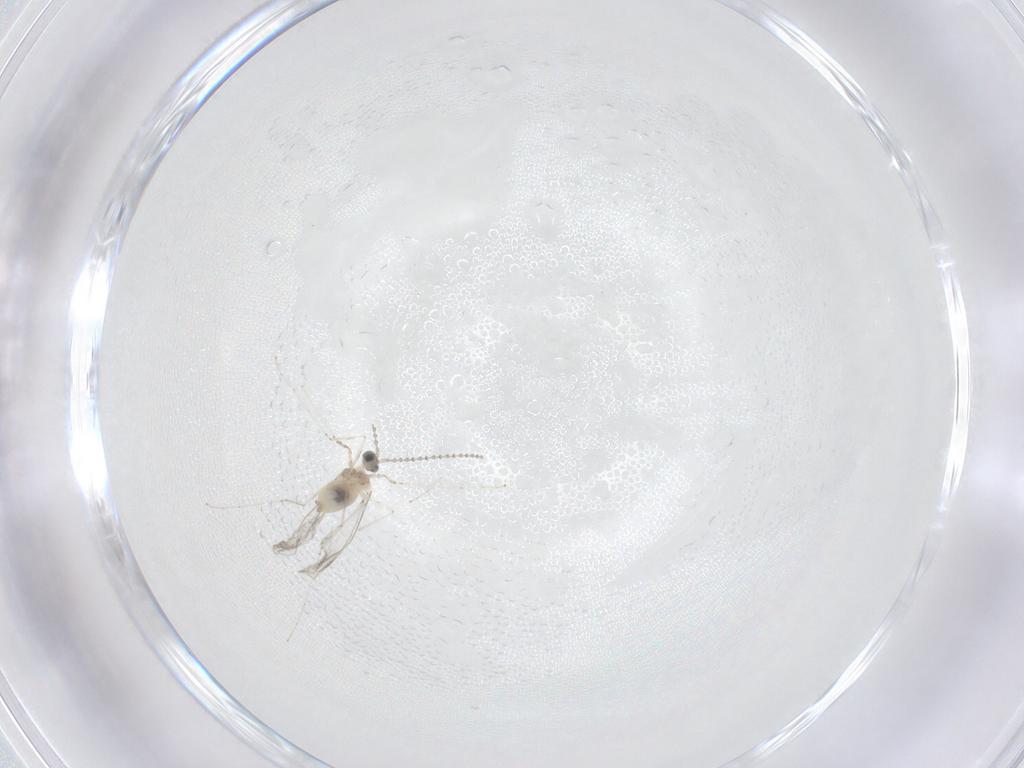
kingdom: Animalia
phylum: Arthropoda
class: Insecta
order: Diptera
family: Cecidomyiidae
